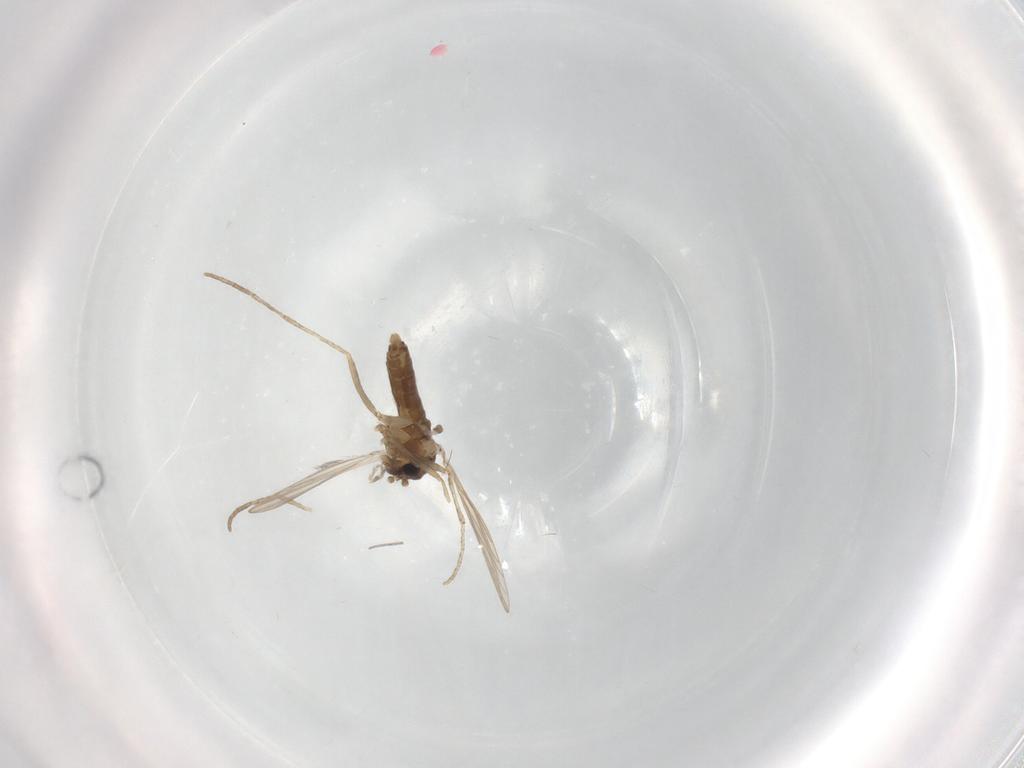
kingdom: Animalia
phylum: Arthropoda
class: Insecta
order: Diptera
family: Psychodidae
